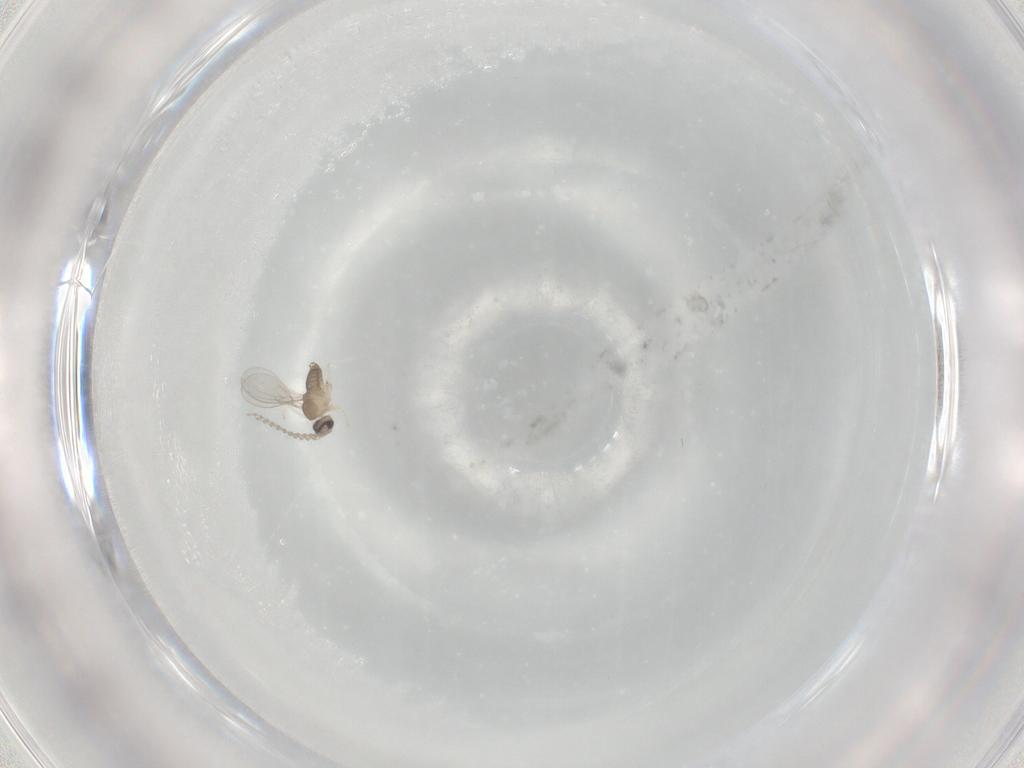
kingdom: Animalia
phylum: Arthropoda
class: Insecta
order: Diptera
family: Cecidomyiidae
